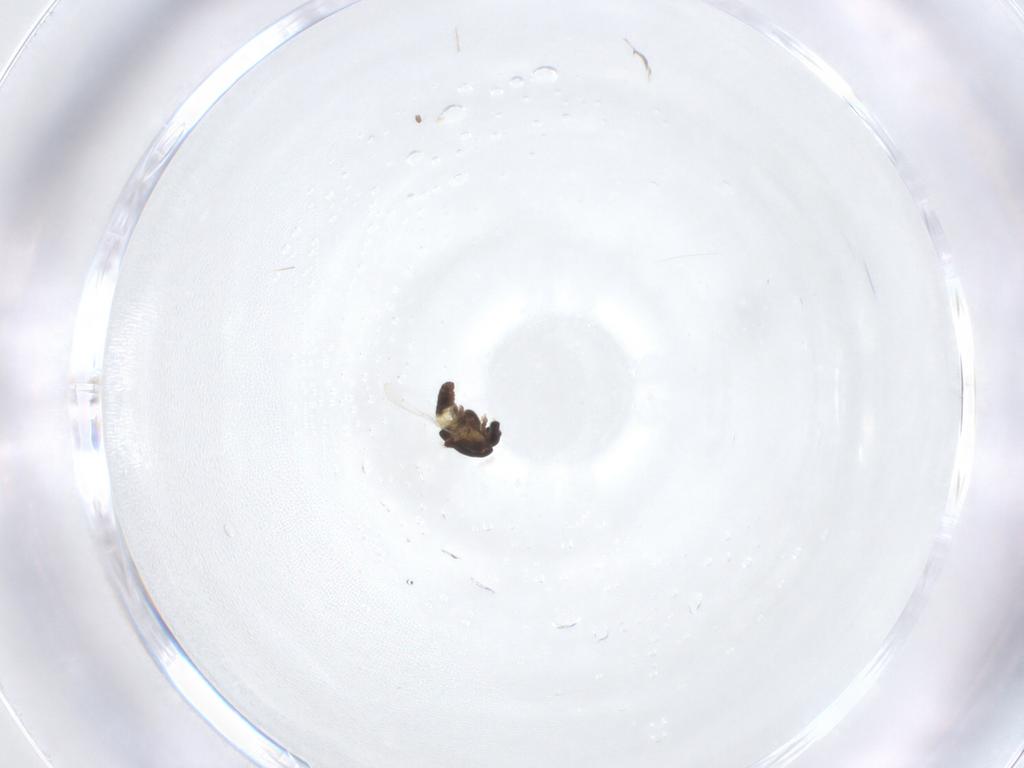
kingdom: Animalia
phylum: Arthropoda
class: Insecta
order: Diptera
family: Chironomidae
